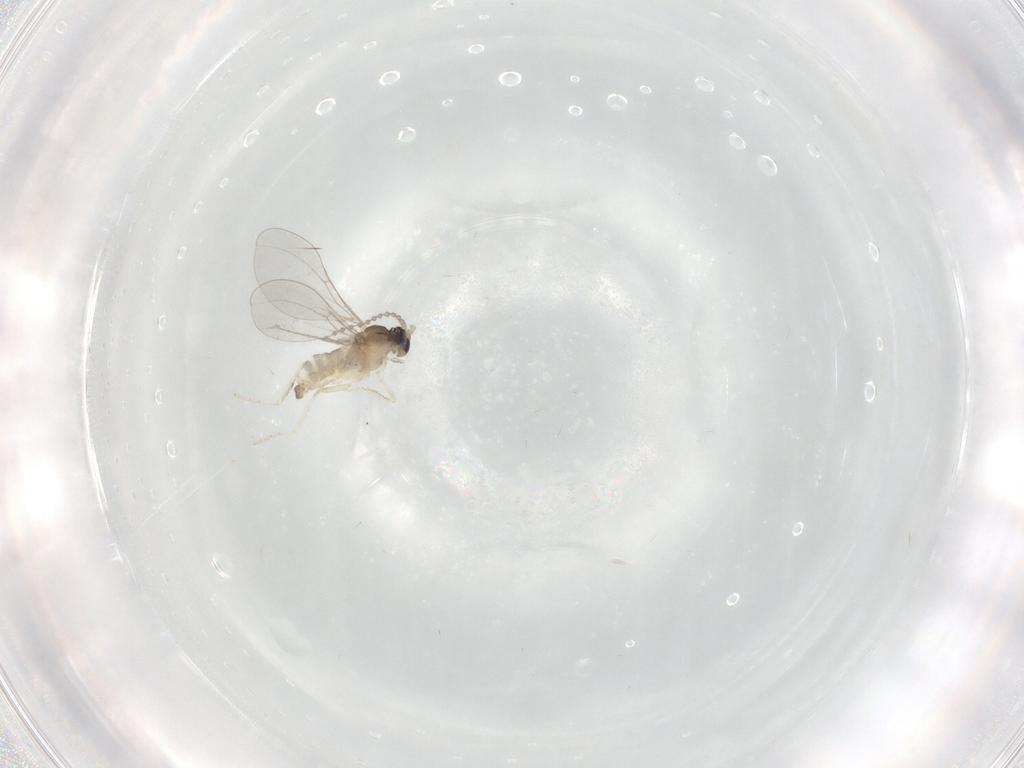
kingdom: Animalia
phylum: Arthropoda
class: Insecta
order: Diptera
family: Cecidomyiidae
